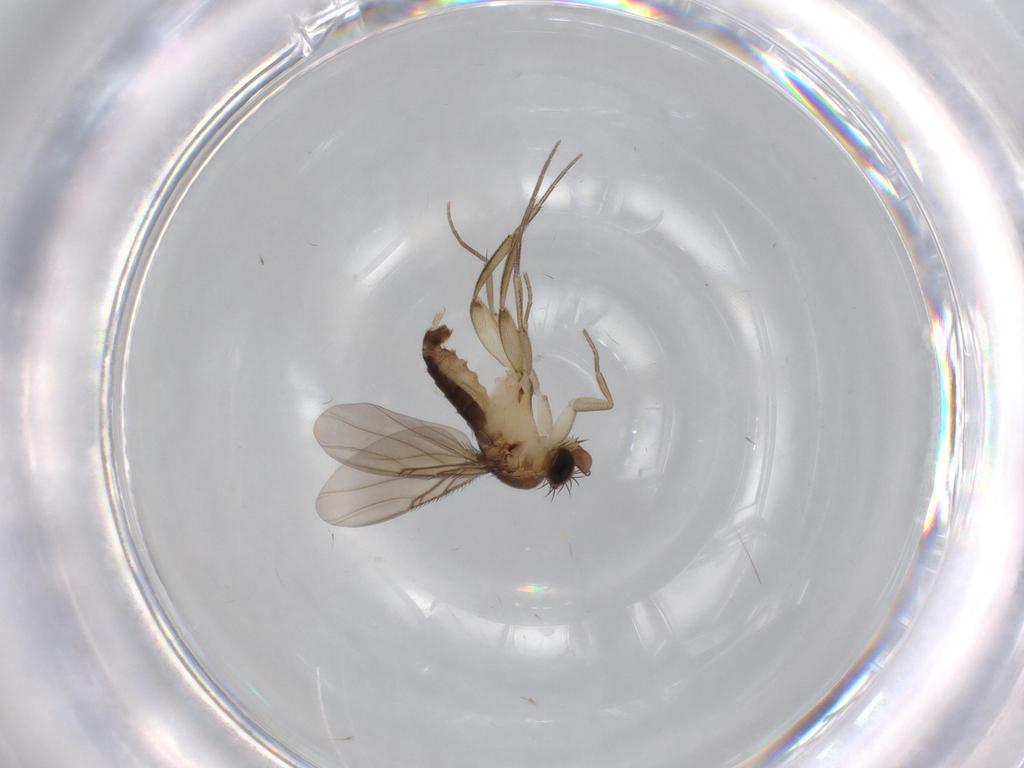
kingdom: Animalia
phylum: Arthropoda
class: Insecta
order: Diptera
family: Phoridae
